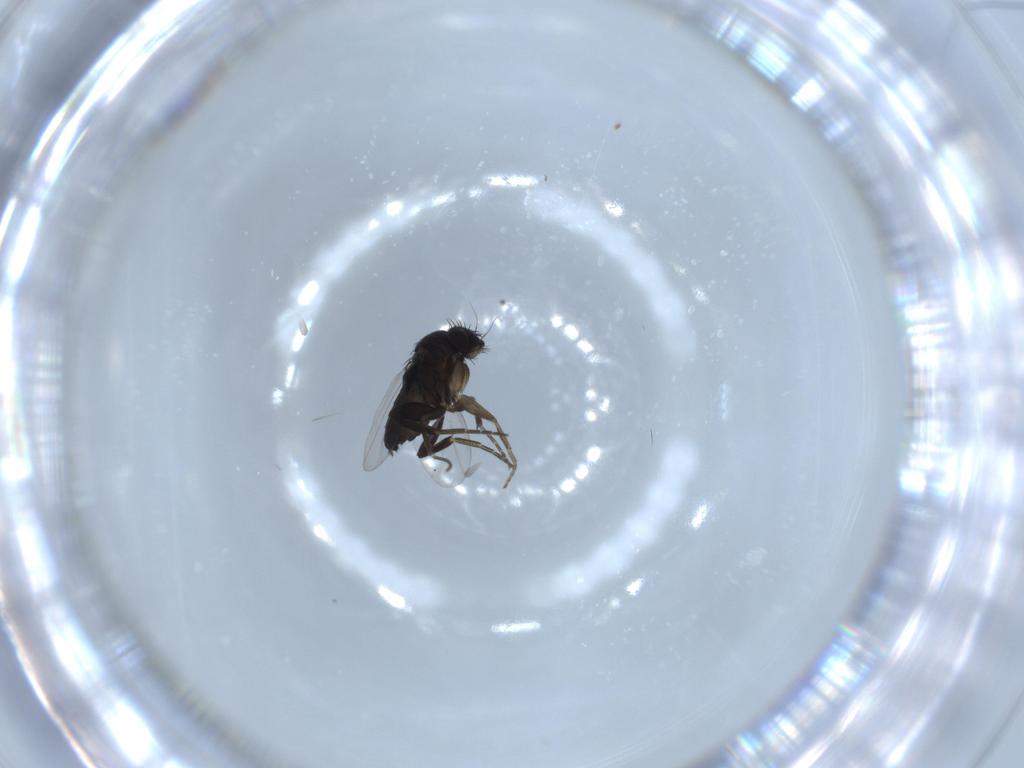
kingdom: Animalia
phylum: Arthropoda
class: Insecta
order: Diptera
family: Phoridae
